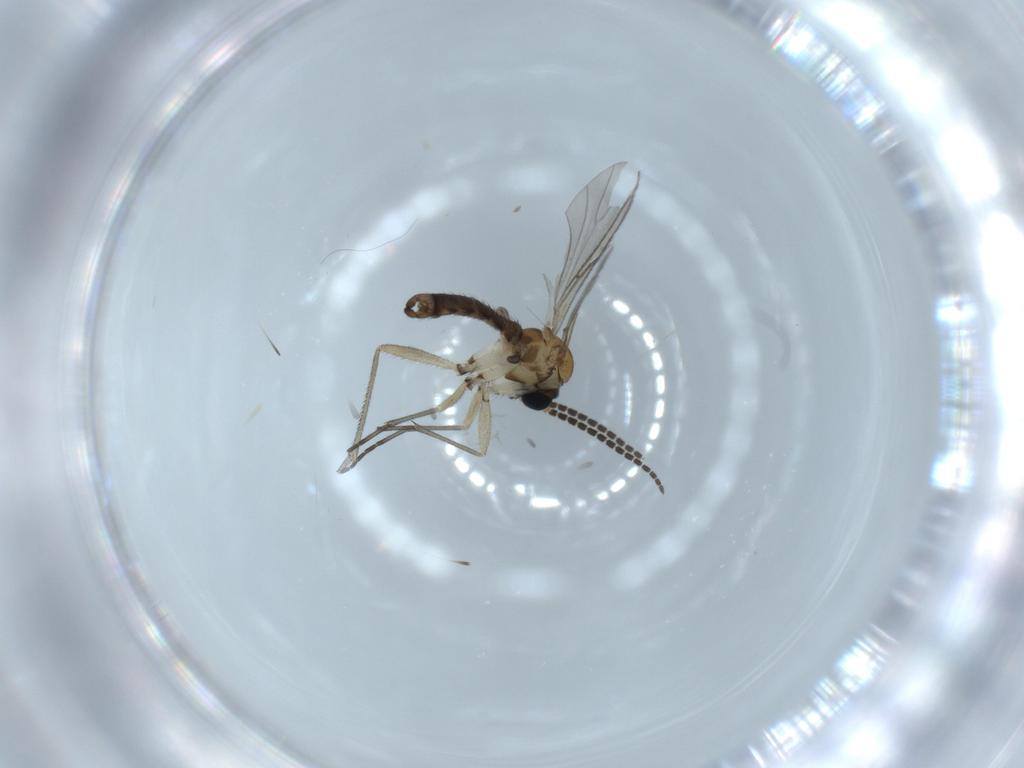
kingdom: Animalia
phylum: Arthropoda
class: Insecta
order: Diptera
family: Sciaridae
